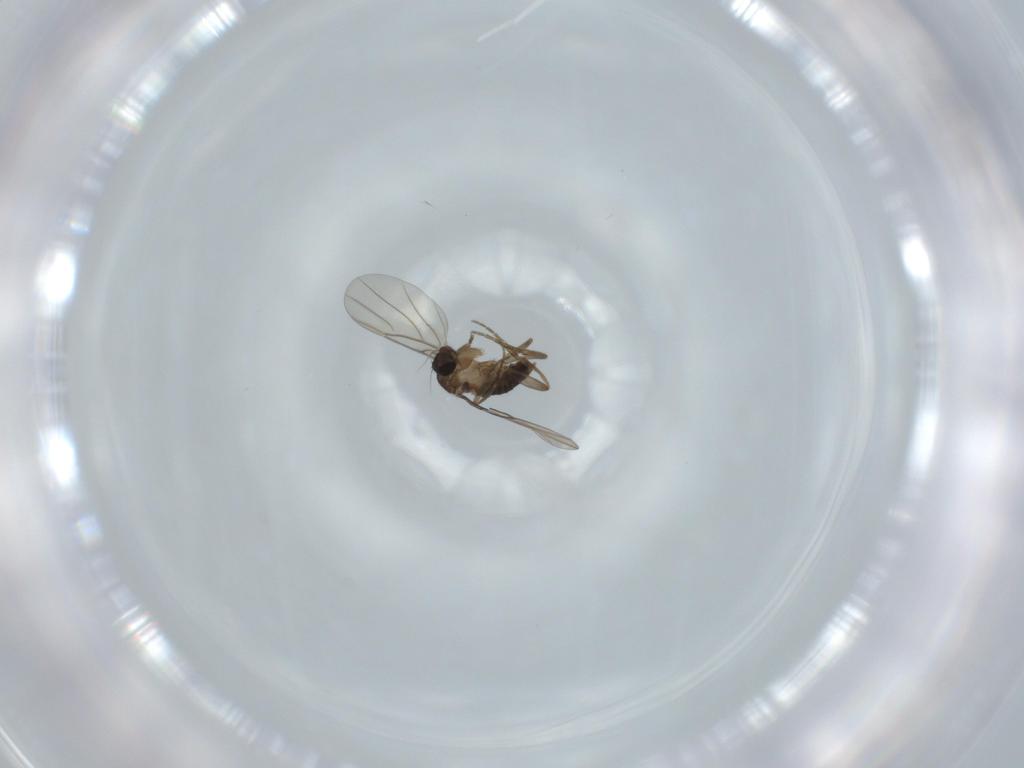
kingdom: Animalia
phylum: Arthropoda
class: Insecta
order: Diptera
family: Phoridae
